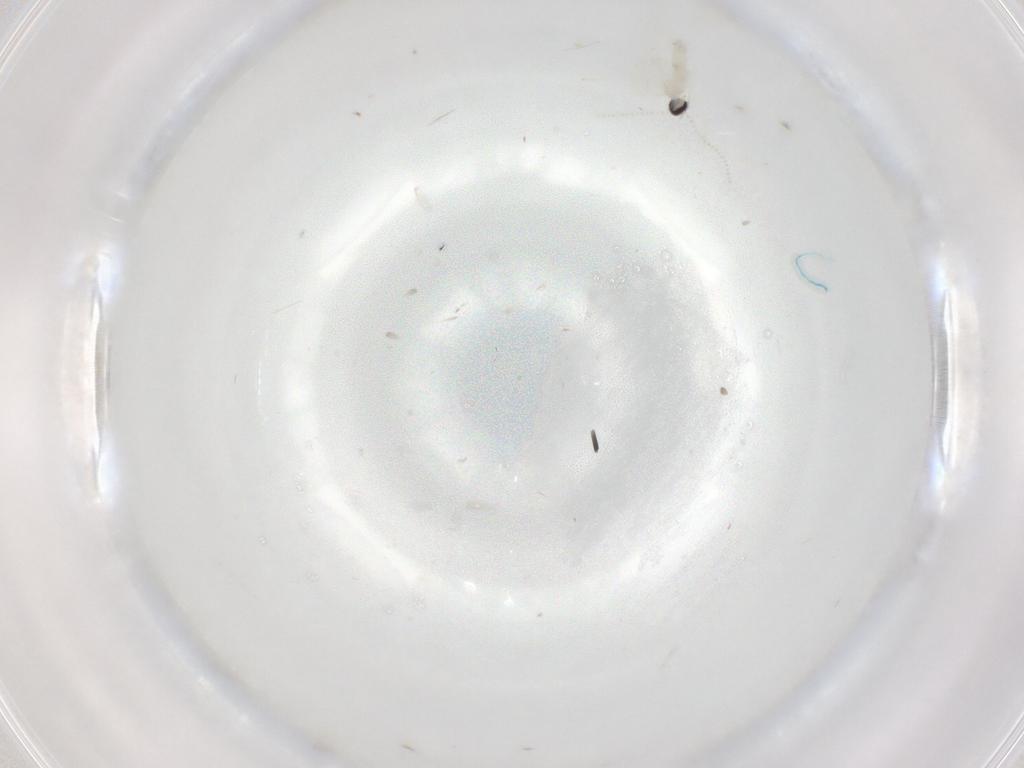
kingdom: Animalia
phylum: Arthropoda
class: Insecta
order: Diptera
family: Cecidomyiidae
